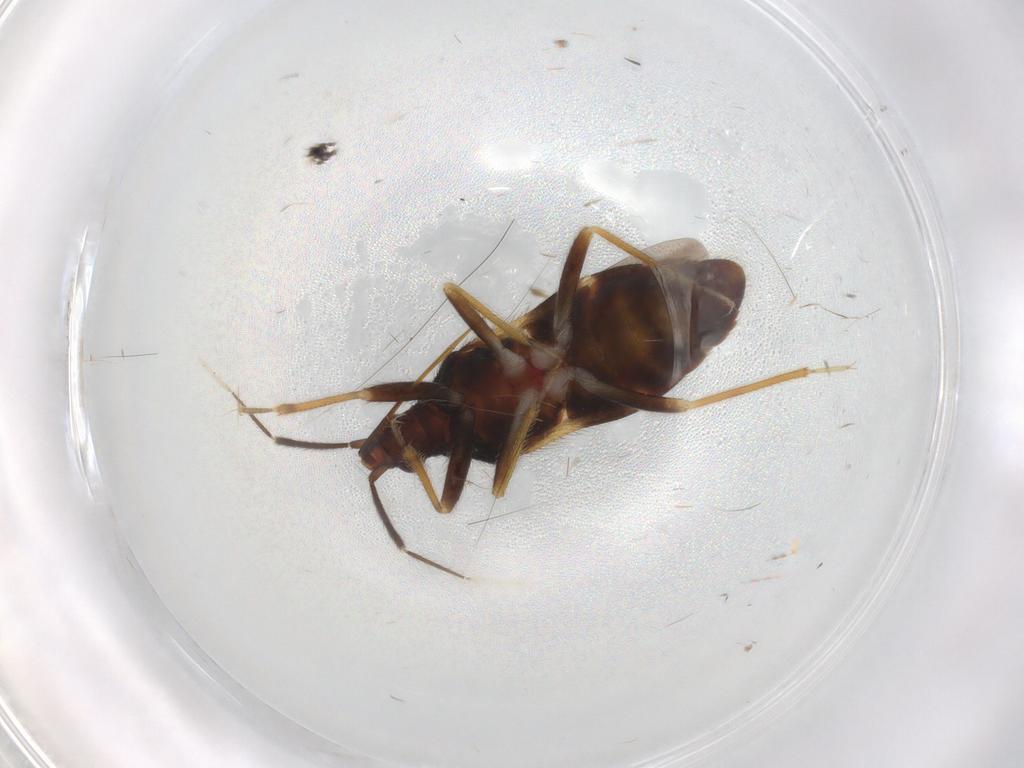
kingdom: Animalia
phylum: Arthropoda
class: Insecta
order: Hemiptera
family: Anthocoridae
